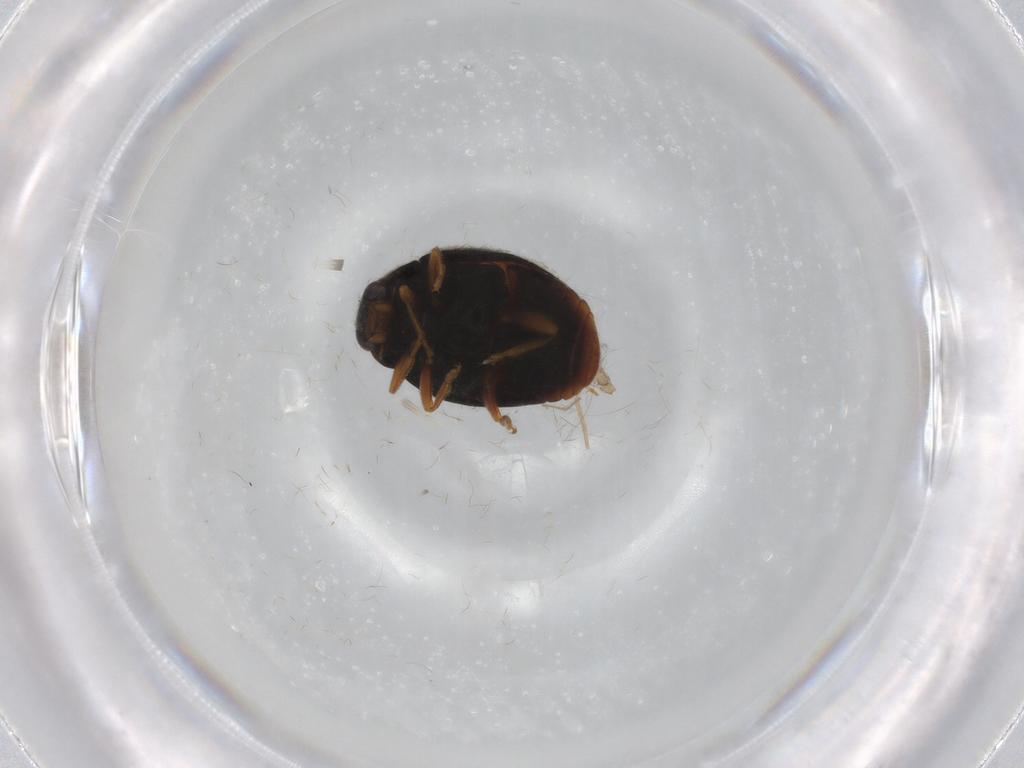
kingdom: Animalia
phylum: Arthropoda
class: Insecta
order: Coleoptera
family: Coccinellidae
